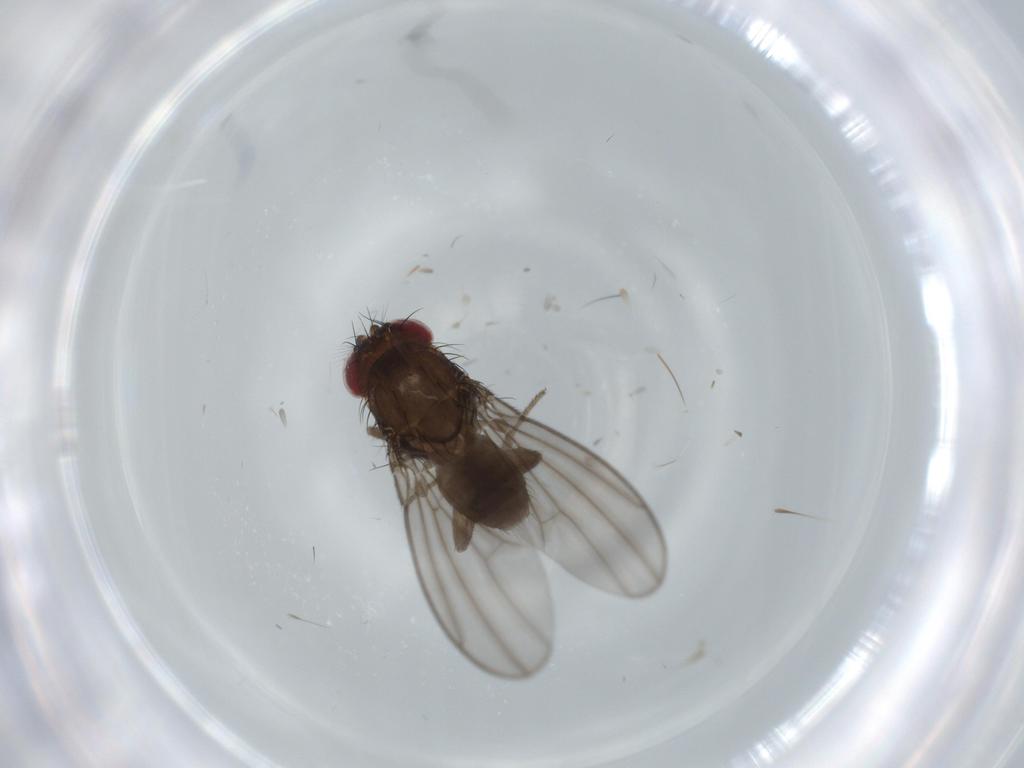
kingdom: Animalia
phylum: Arthropoda
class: Insecta
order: Diptera
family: Drosophilidae
